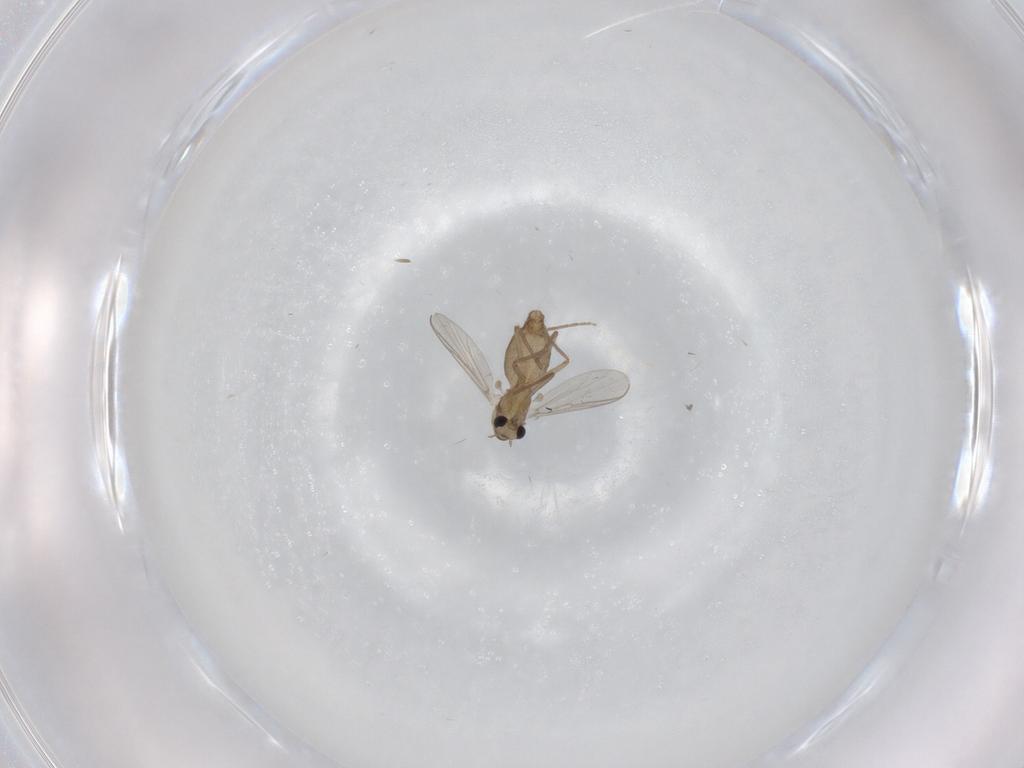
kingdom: Animalia
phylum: Arthropoda
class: Insecta
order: Diptera
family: Chironomidae
